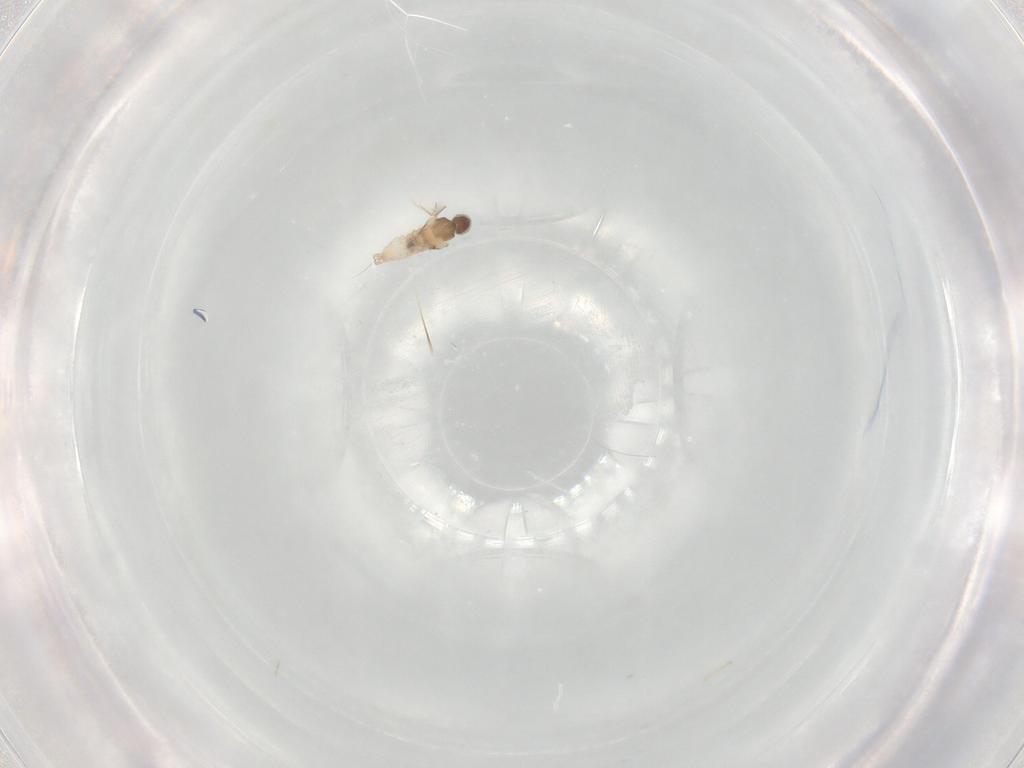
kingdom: Animalia
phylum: Arthropoda
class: Insecta
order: Diptera
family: Cecidomyiidae
